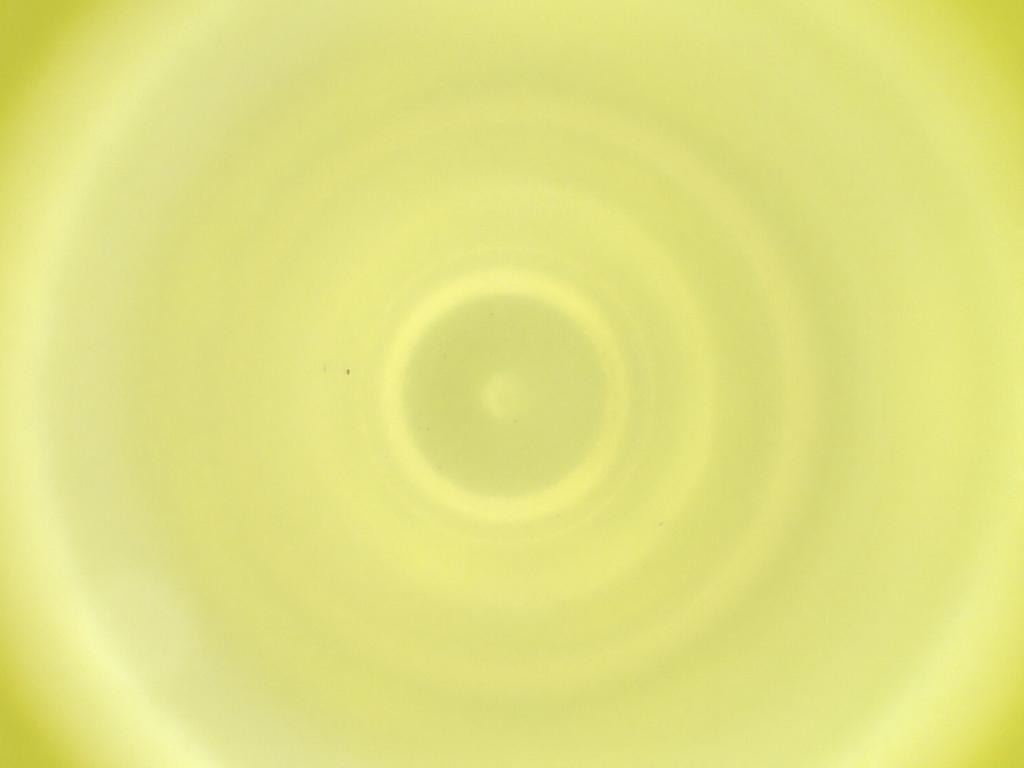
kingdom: Animalia
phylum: Arthropoda
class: Insecta
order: Diptera
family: Cecidomyiidae
